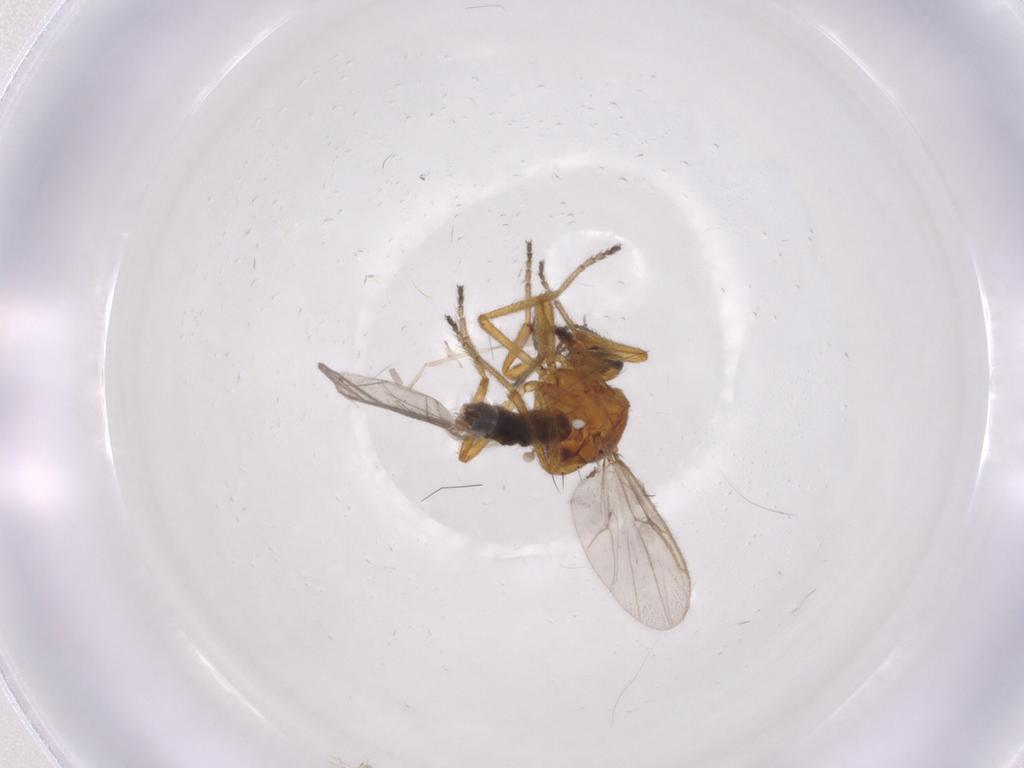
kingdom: Animalia
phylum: Arthropoda
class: Insecta
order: Diptera
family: Ceratopogonidae
